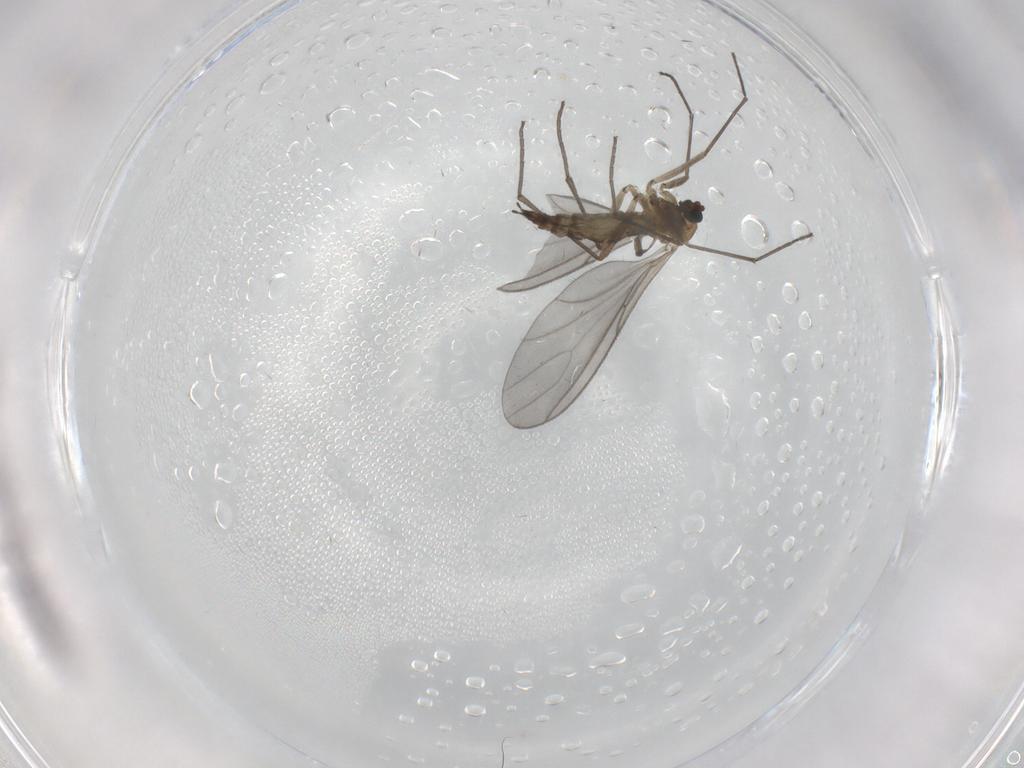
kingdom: Animalia
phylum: Arthropoda
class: Insecta
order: Diptera
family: Sciaridae
